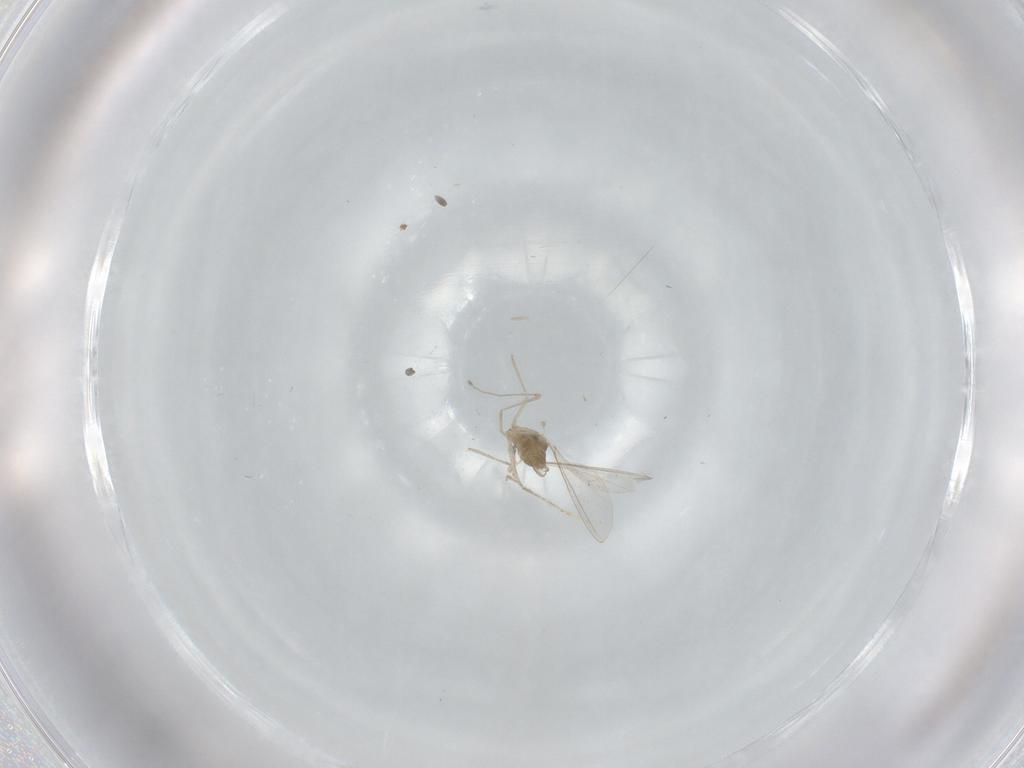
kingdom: Animalia
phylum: Arthropoda
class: Insecta
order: Diptera
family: Cecidomyiidae
